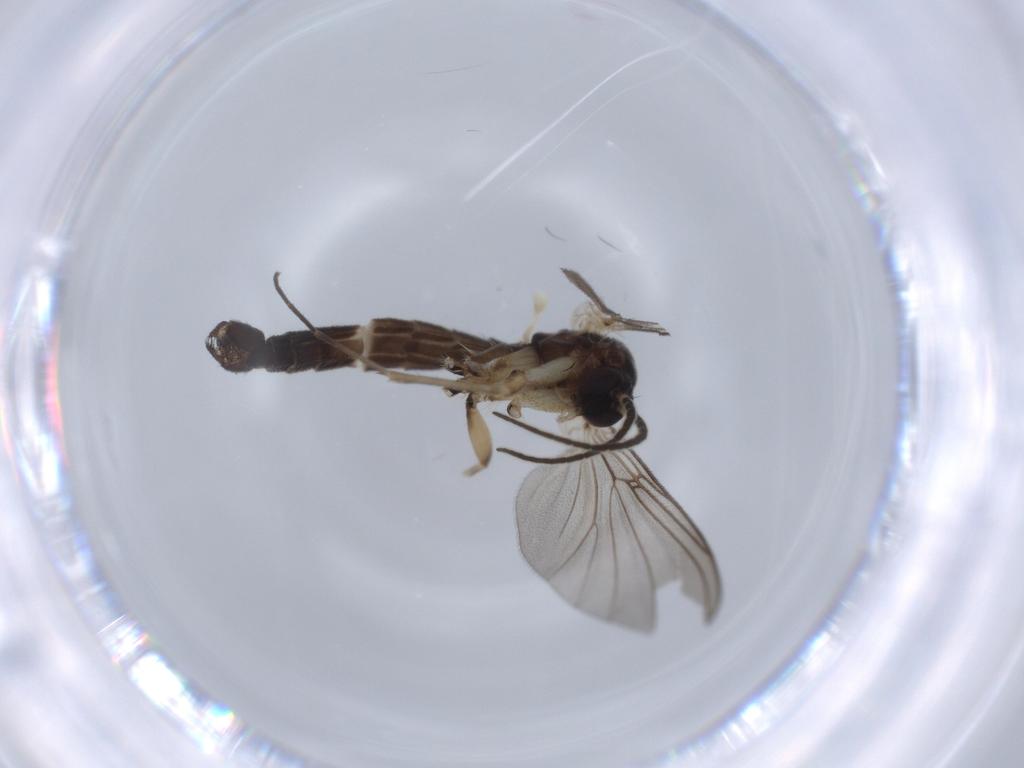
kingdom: Animalia
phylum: Arthropoda
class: Insecta
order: Diptera
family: Mycetophilidae
